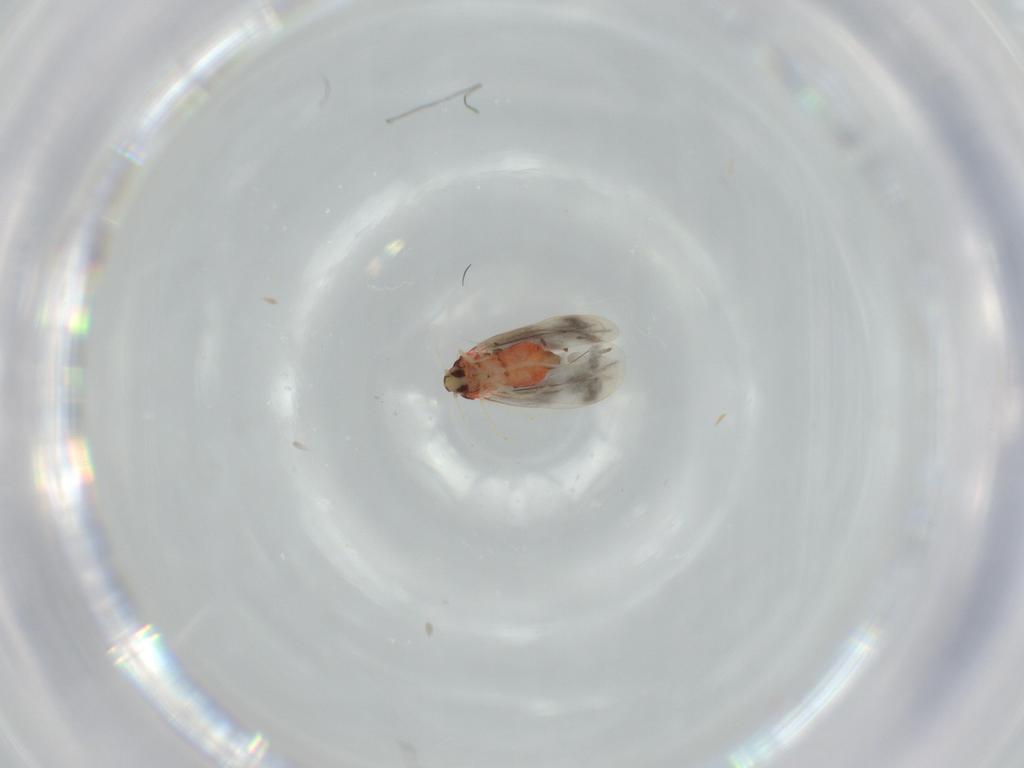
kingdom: Animalia
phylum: Arthropoda
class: Insecta
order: Hemiptera
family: Aleyrodidae
